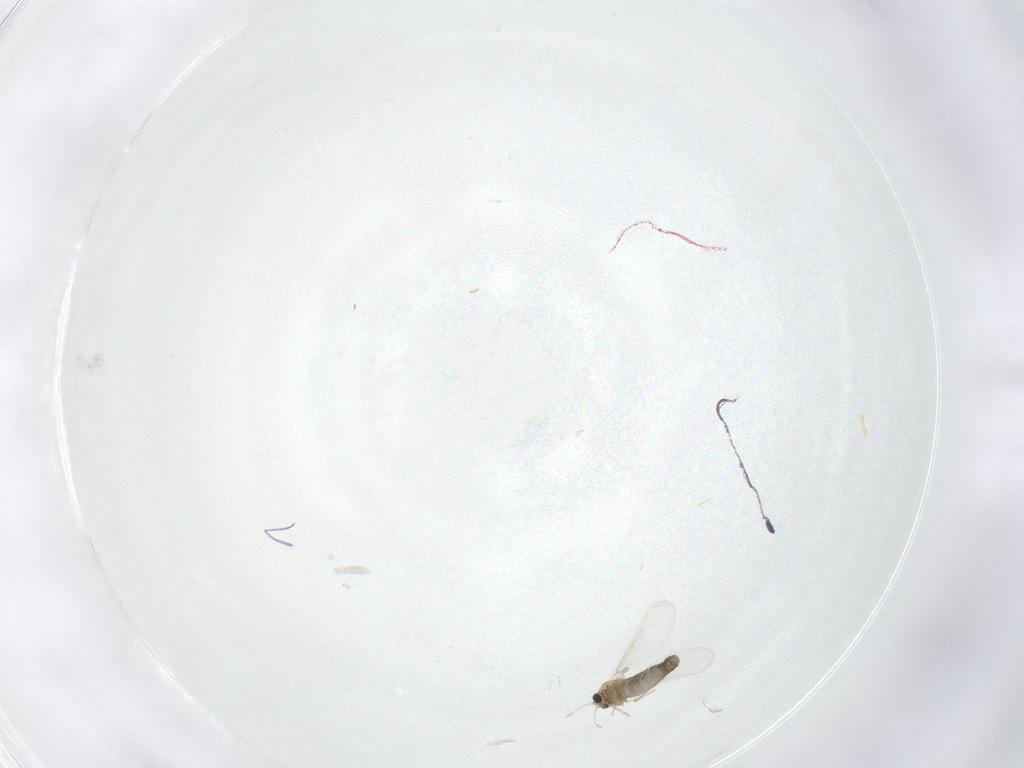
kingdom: Animalia
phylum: Arthropoda
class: Insecta
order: Diptera
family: Chironomidae
